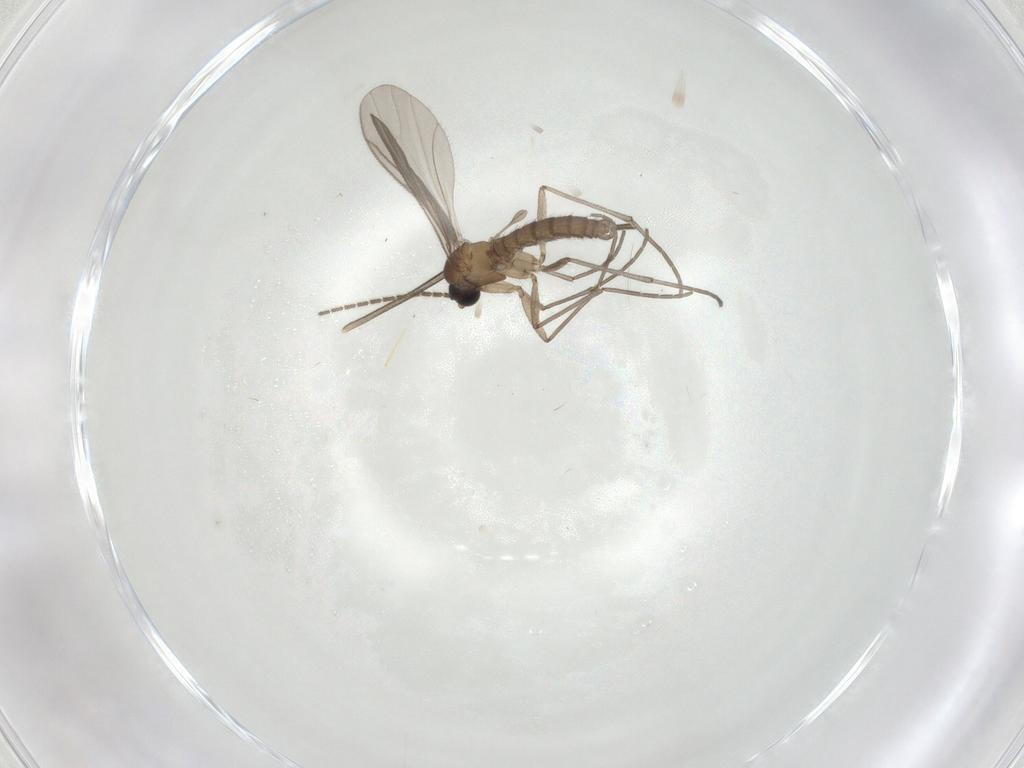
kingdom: Animalia
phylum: Arthropoda
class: Insecta
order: Diptera
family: Keroplatidae
